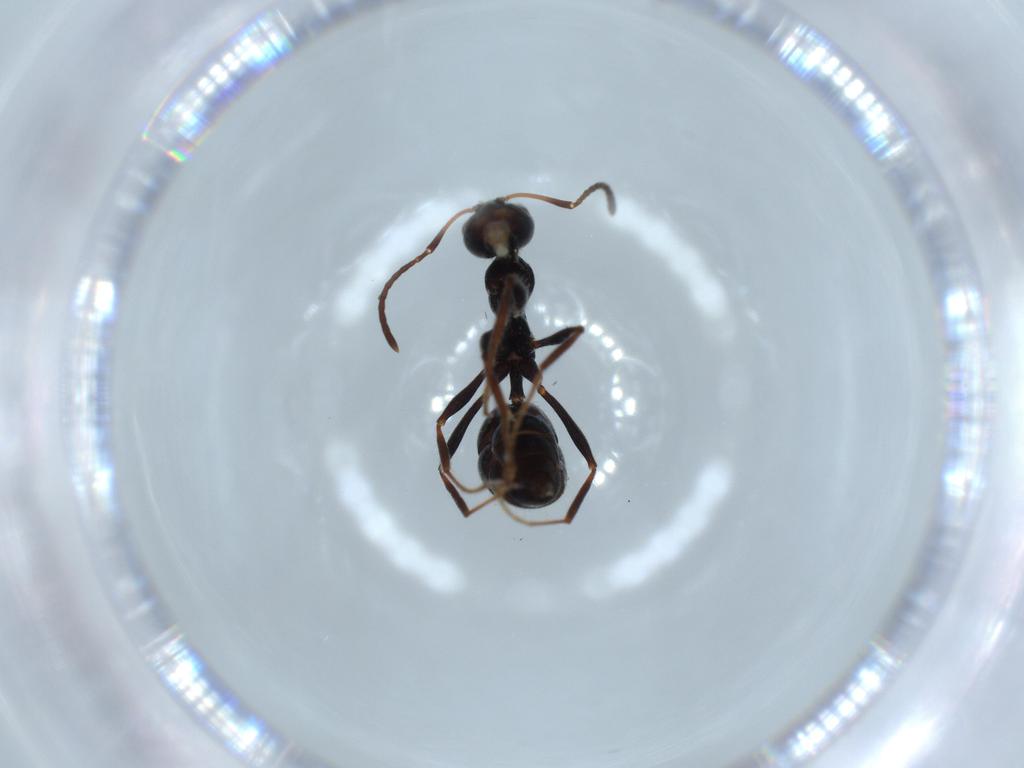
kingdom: Animalia
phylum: Arthropoda
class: Insecta
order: Hymenoptera
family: Formicidae
